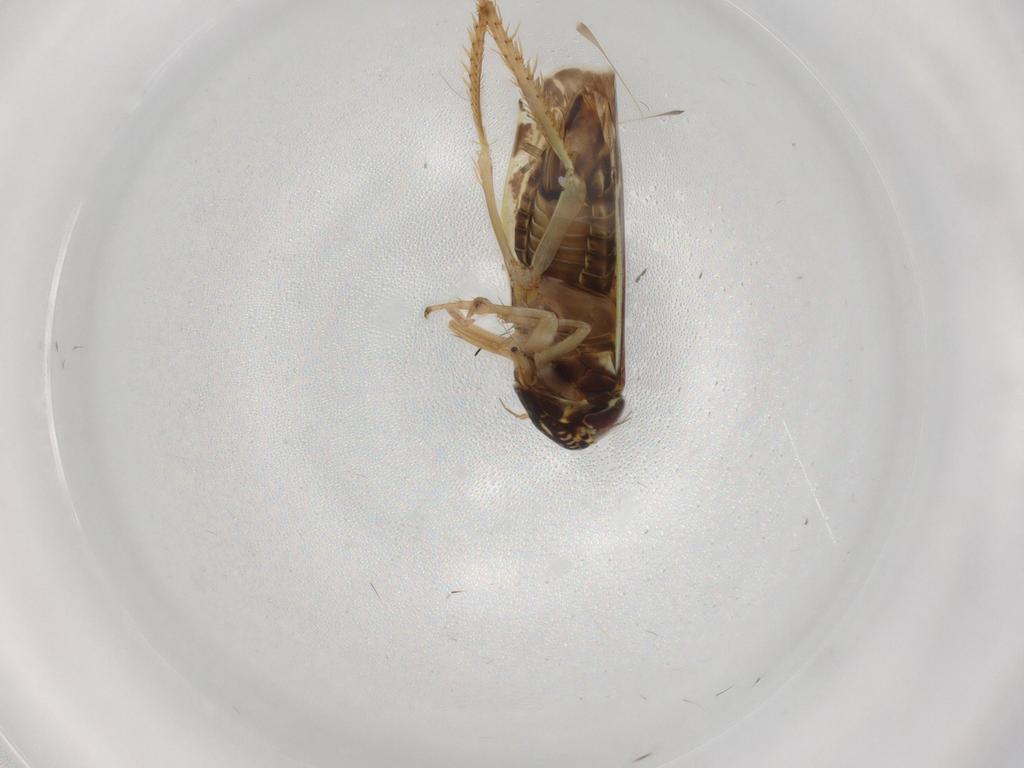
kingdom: Animalia
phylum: Arthropoda
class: Insecta
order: Hemiptera
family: Cicadellidae
